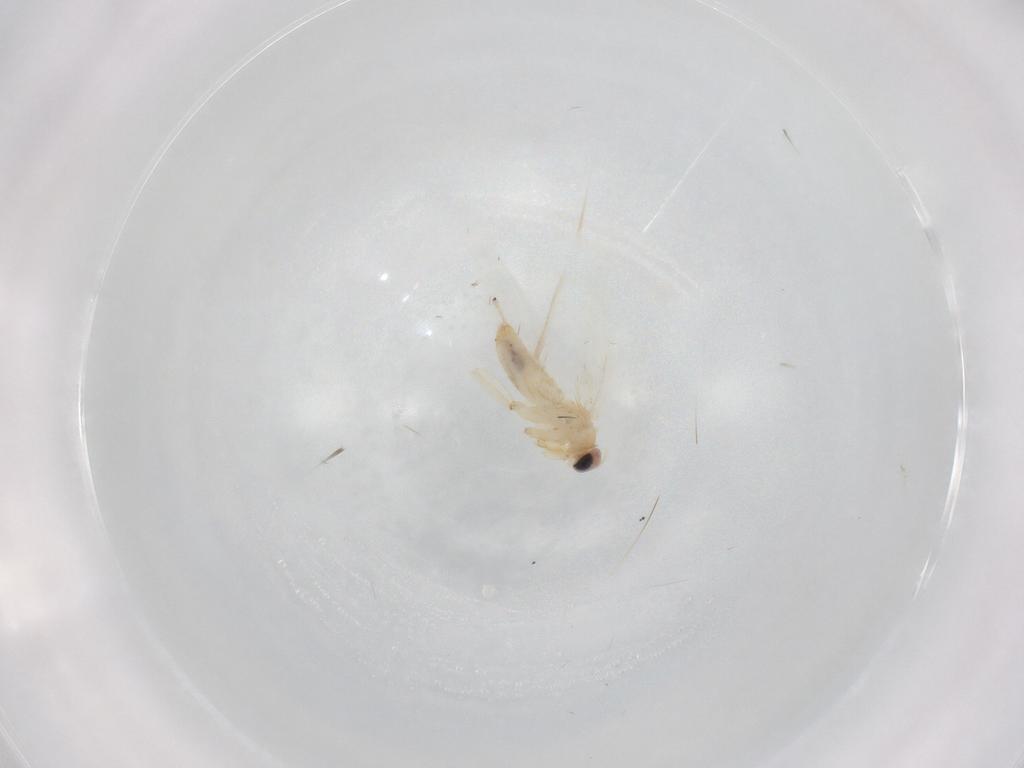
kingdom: Animalia
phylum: Arthropoda
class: Insecta
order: Lepidoptera
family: Nepticulidae
